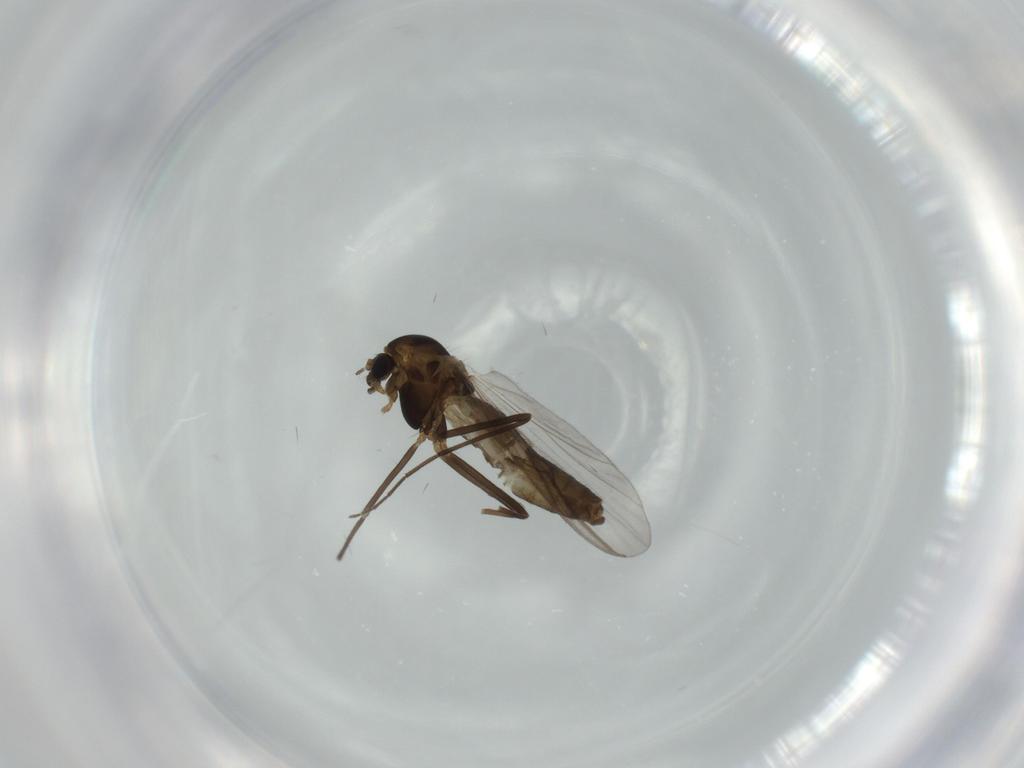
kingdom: Animalia
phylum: Arthropoda
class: Insecta
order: Diptera
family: Chironomidae
